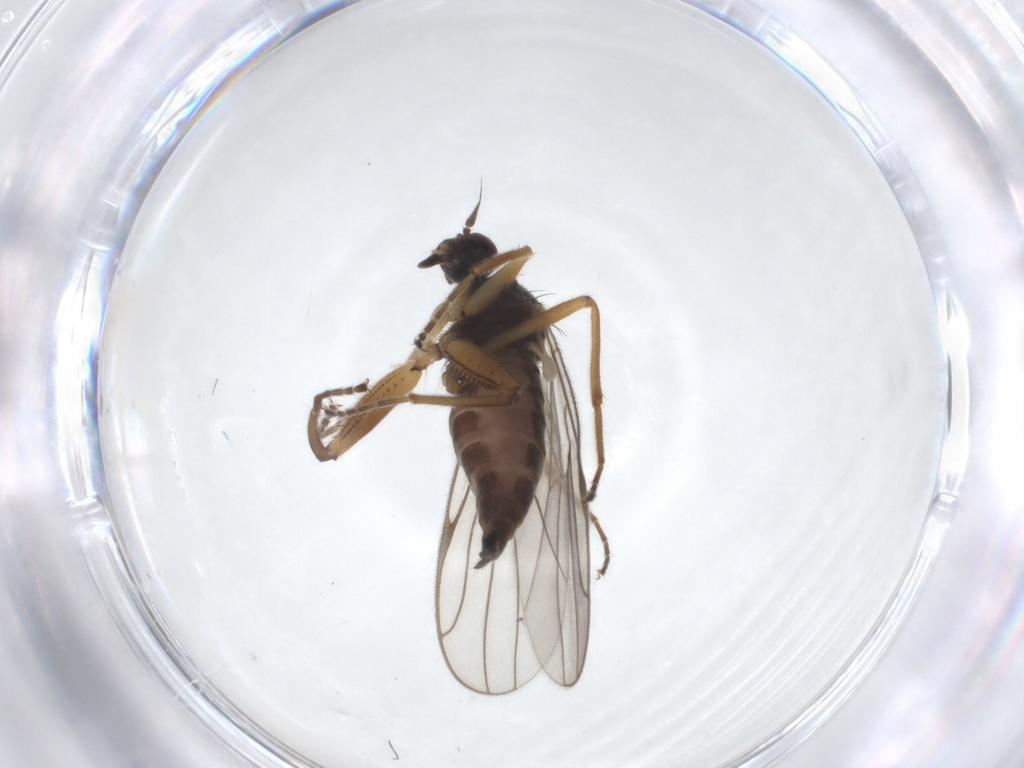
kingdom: Animalia
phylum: Arthropoda
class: Insecta
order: Diptera
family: Hybotidae
